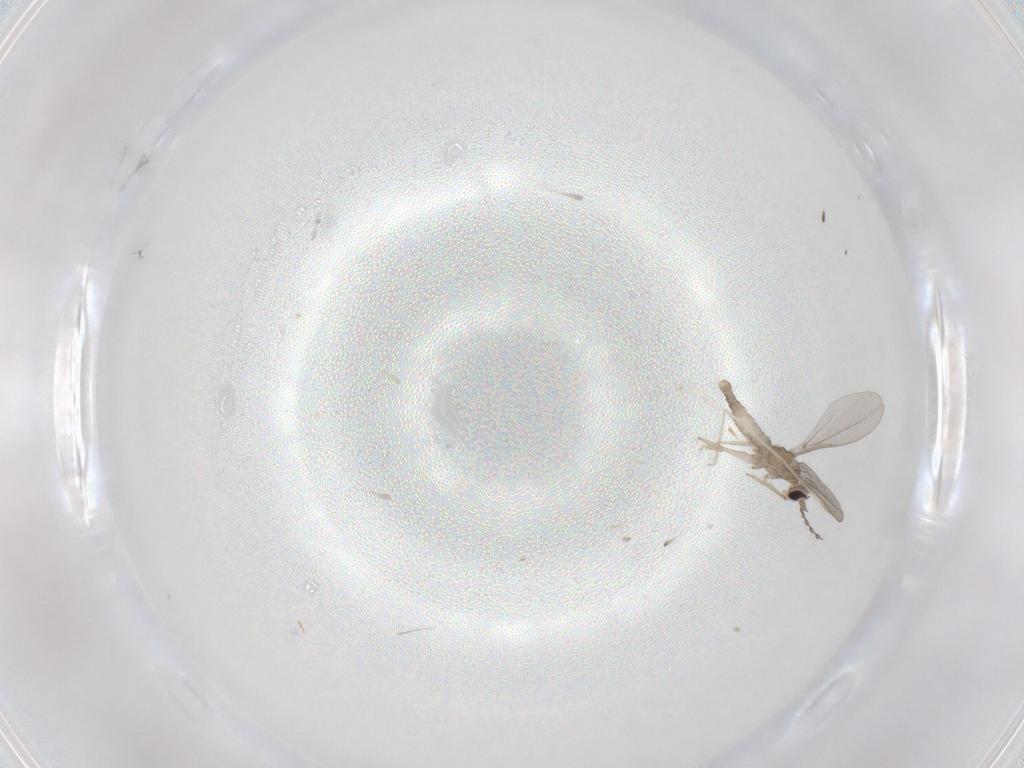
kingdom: Animalia
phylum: Arthropoda
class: Insecta
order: Diptera
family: Cecidomyiidae
